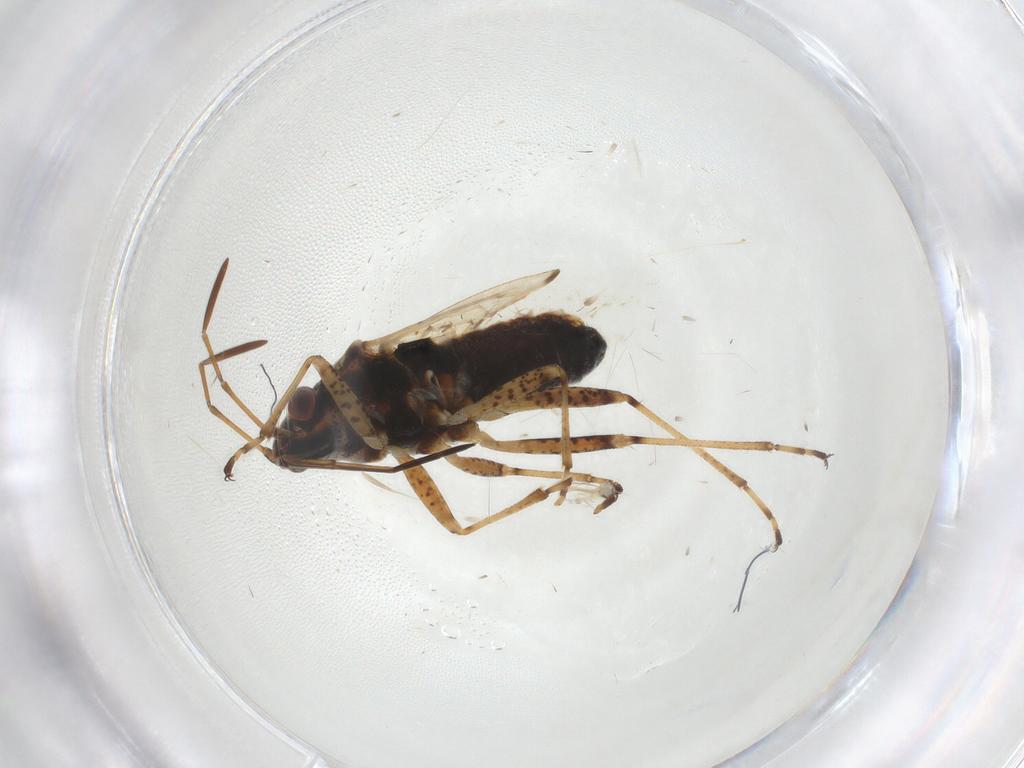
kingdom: Animalia
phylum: Arthropoda
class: Insecta
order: Hemiptera
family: Lygaeidae
